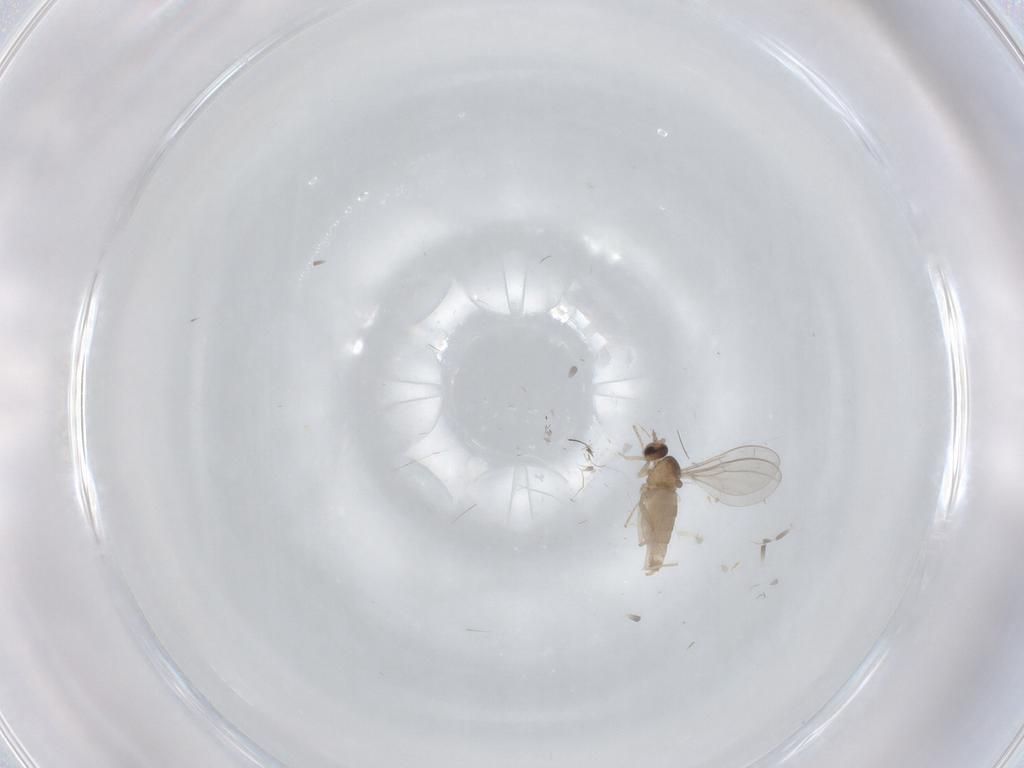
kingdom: Animalia
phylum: Arthropoda
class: Insecta
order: Diptera
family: Cecidomyiidae
